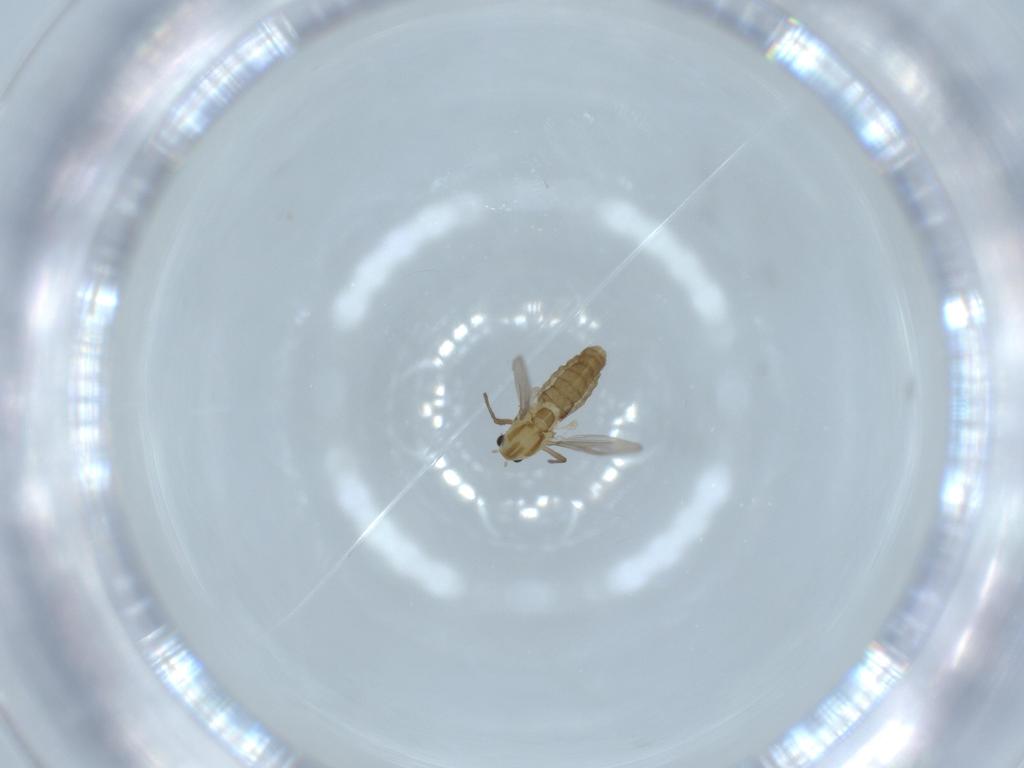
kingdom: Animalia
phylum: Arthropoda
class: Insecta
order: Diptera
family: Chironomidae
